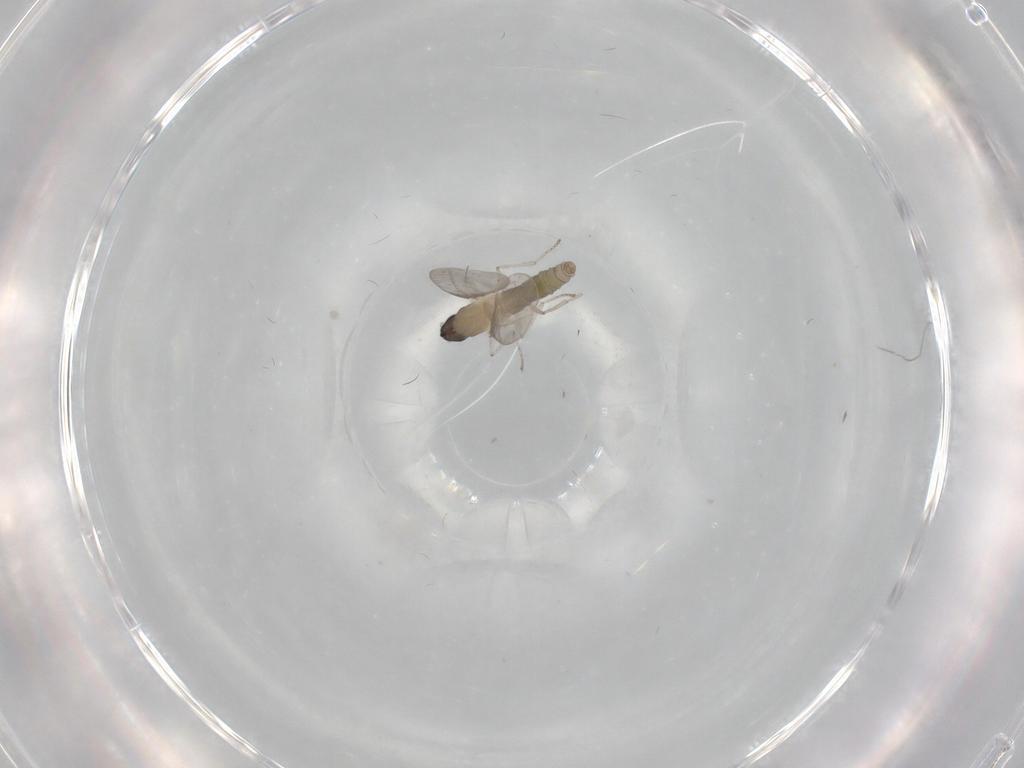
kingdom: Animalia
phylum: Arthropoda
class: Insecta
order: Diptera
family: Cecidomyiidae
